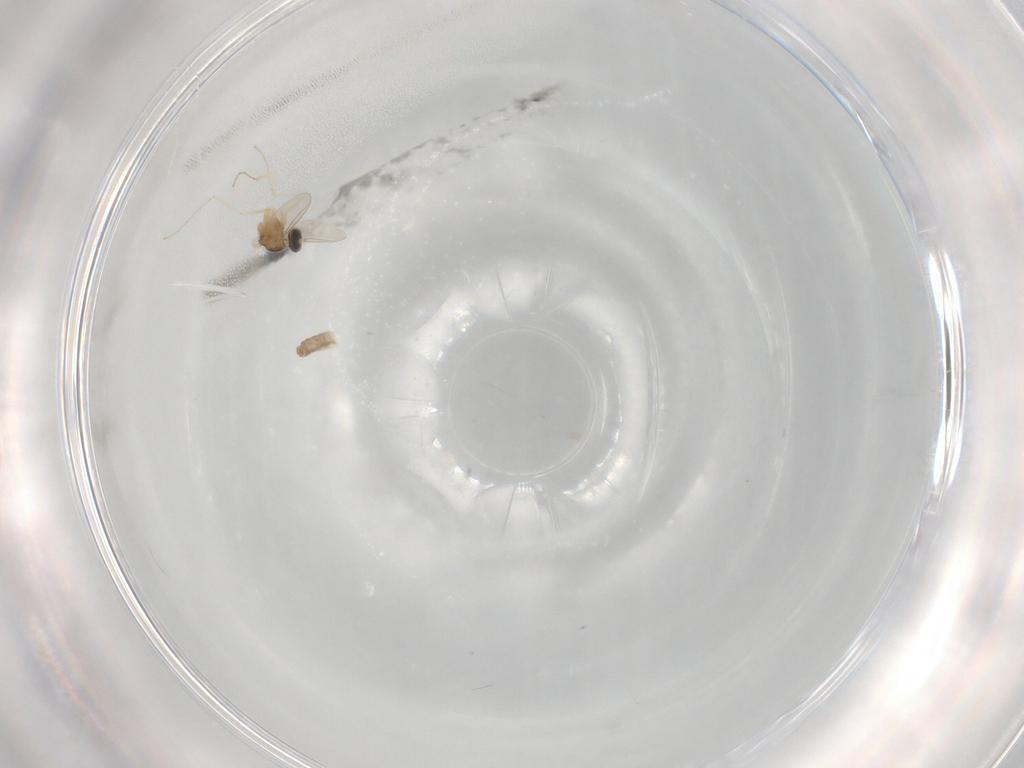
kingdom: Animalia
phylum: Arthropoda
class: Insecta
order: Diptera
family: Cecidomyiidae
